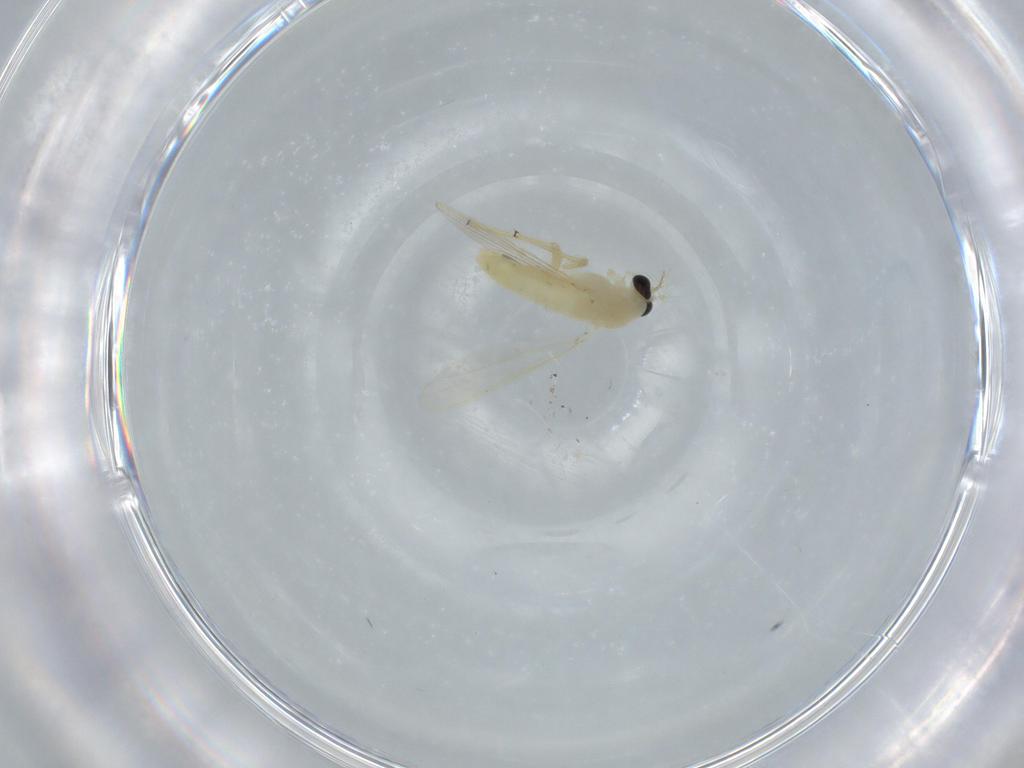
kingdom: Animalia
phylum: Arthropoda
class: Insecta
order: Diptera
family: Chironomidae
